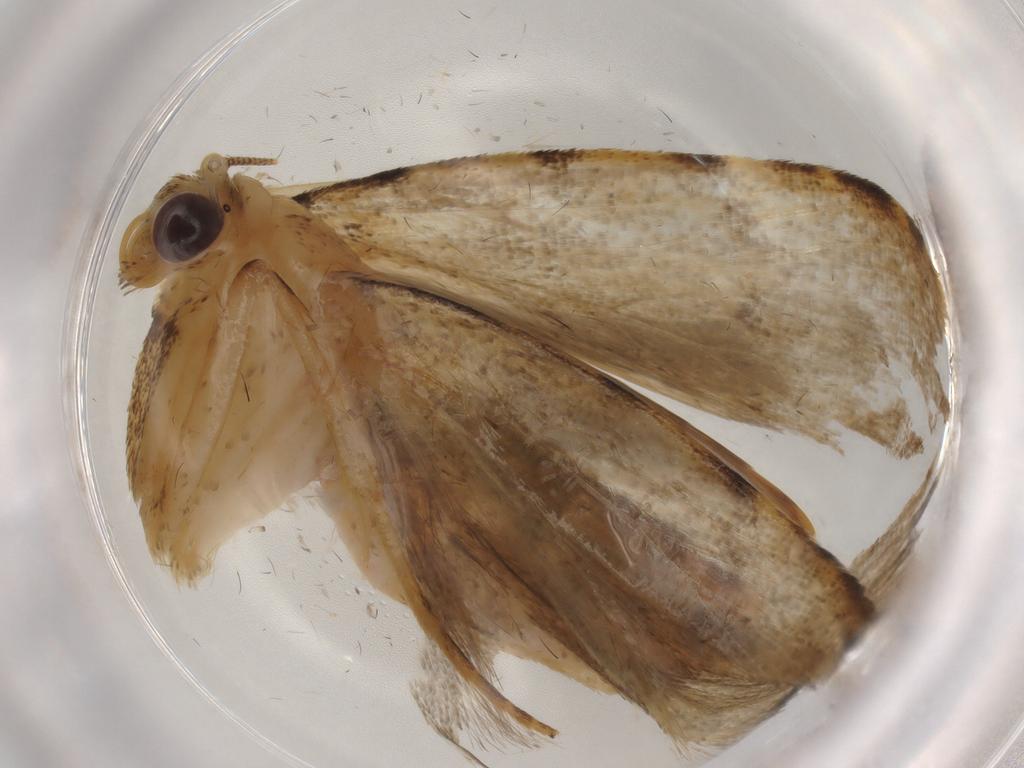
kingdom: Animalia
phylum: Arthropoda
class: Insecta
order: Lepidoptera
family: Erebidae
